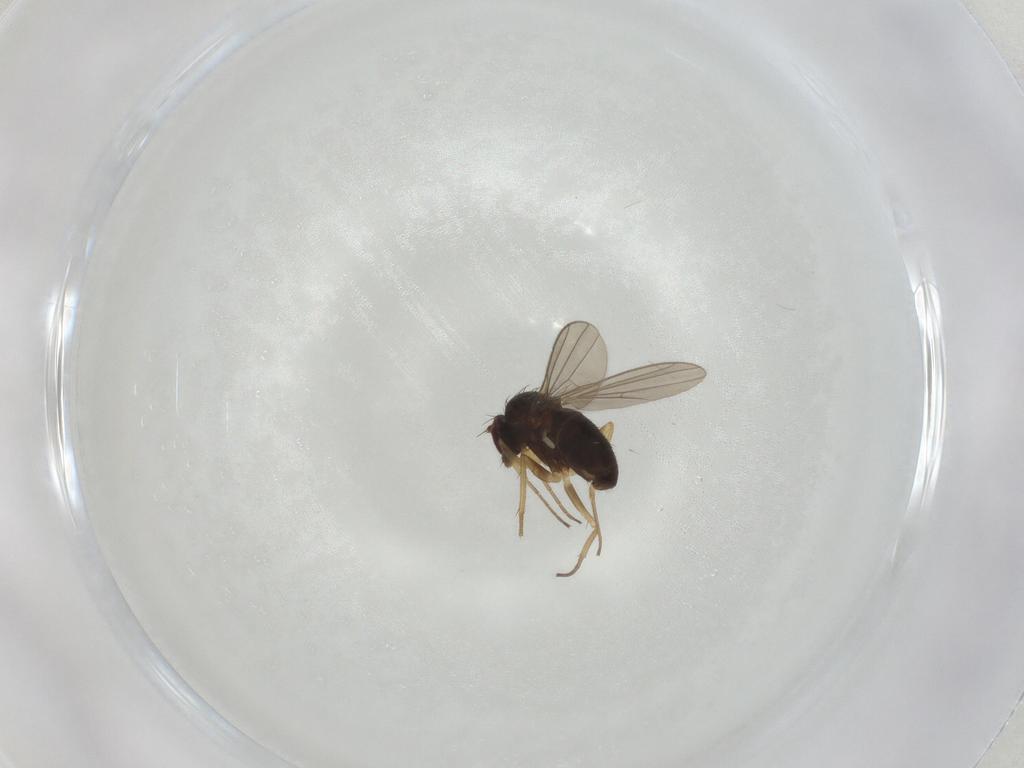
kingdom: Animalia
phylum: Arthropoda
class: Insecta
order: Diptera
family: Dolichopodidae
